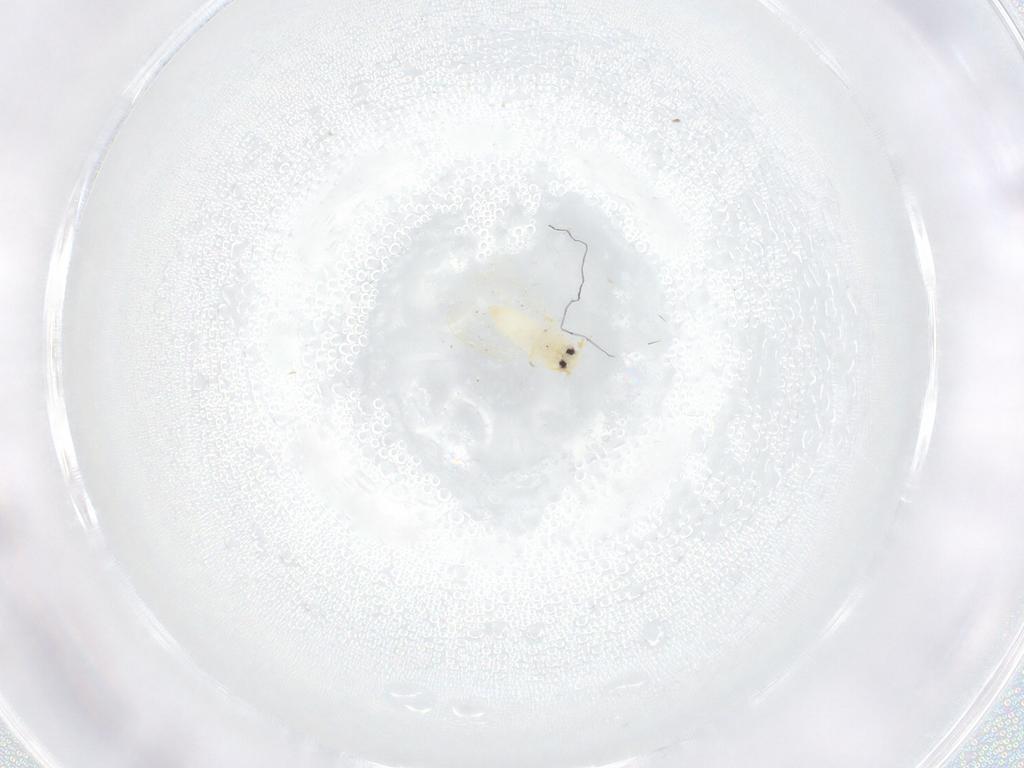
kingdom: Animalia
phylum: Arthropoda
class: Insecta
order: Hemiptera
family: Aleyrodidae
